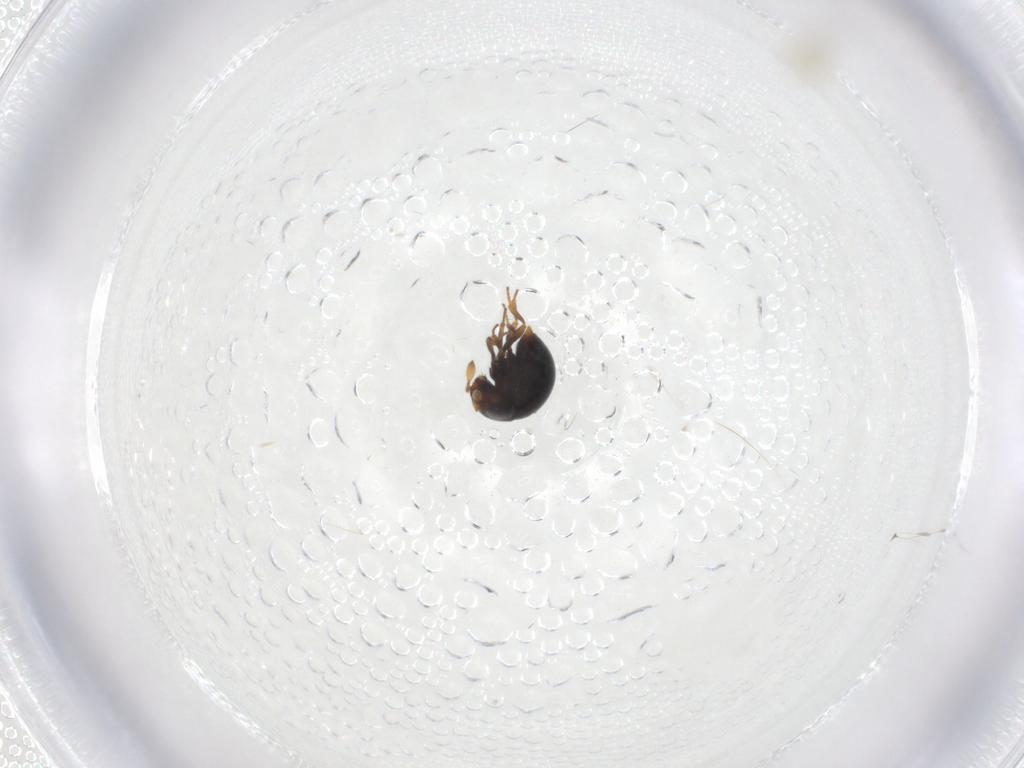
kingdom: Animalia
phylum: Arthropoda
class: Insecta
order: Hymenoptera
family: Scelionidae
